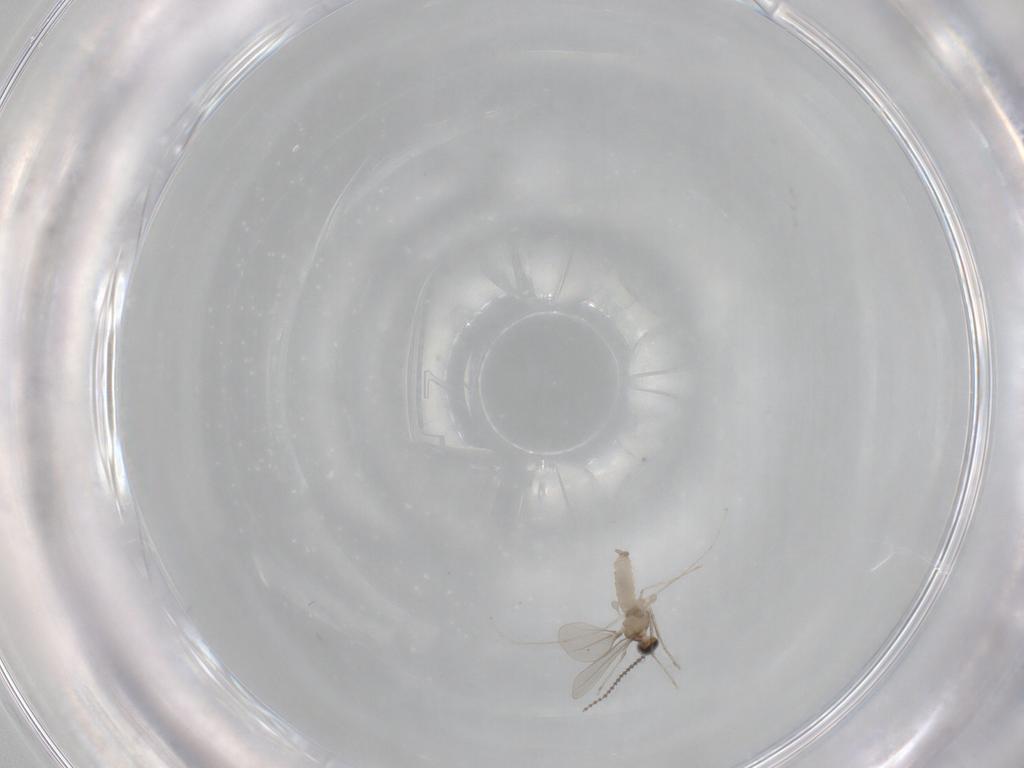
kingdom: Animalia
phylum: Arthropoda
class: Insecta
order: Diptera
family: Cecidomyiidae
